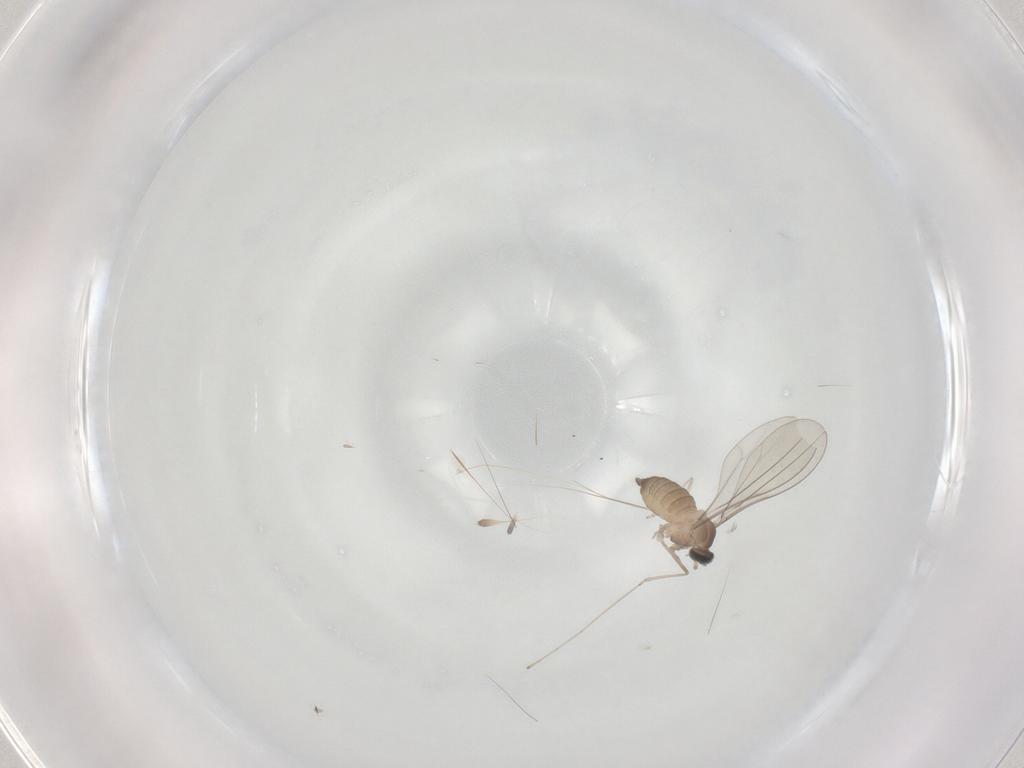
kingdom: Animalia
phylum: Arthropoda
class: Insecta
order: Diptera
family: Cecidomyiidae
